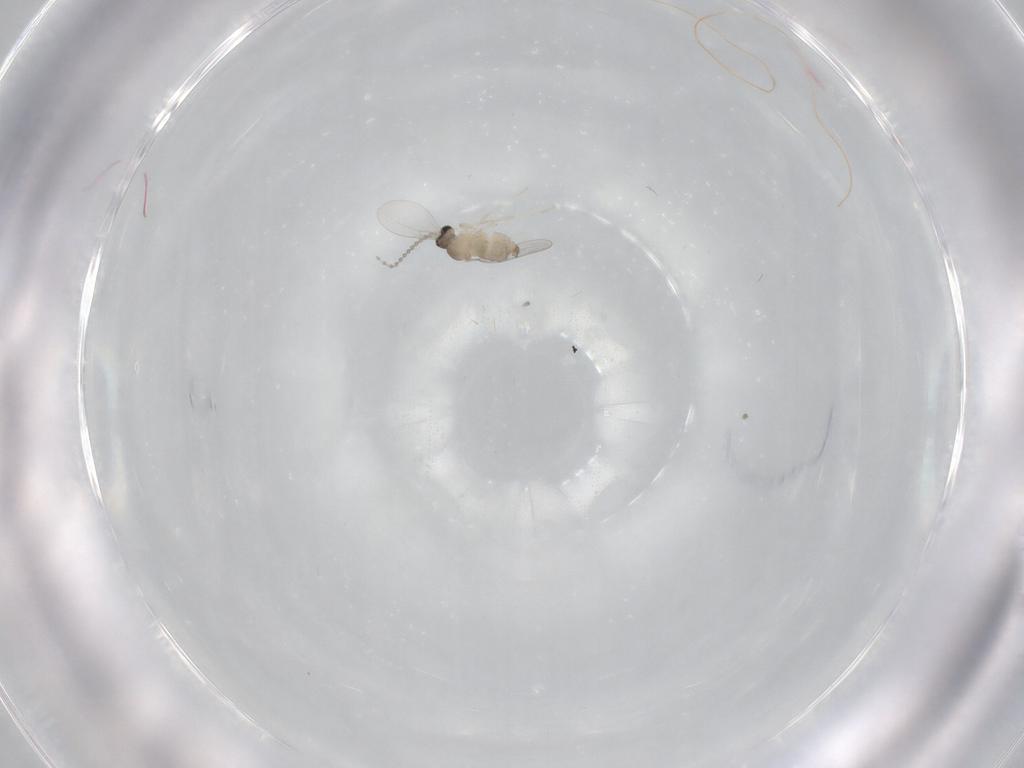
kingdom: Animalia
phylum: Arthropoda
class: Insecta
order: Diptera
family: Cecidomyiidae
